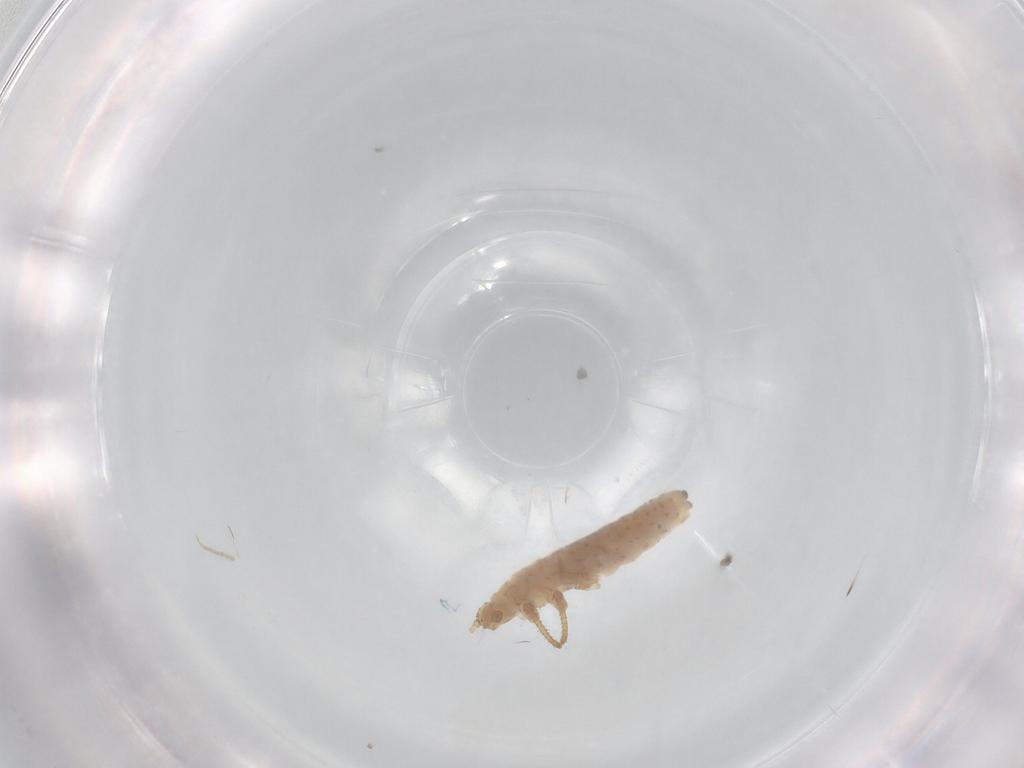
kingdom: Animalia
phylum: Arthropoda
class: Insecta
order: Hemiptera
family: Aphididae
